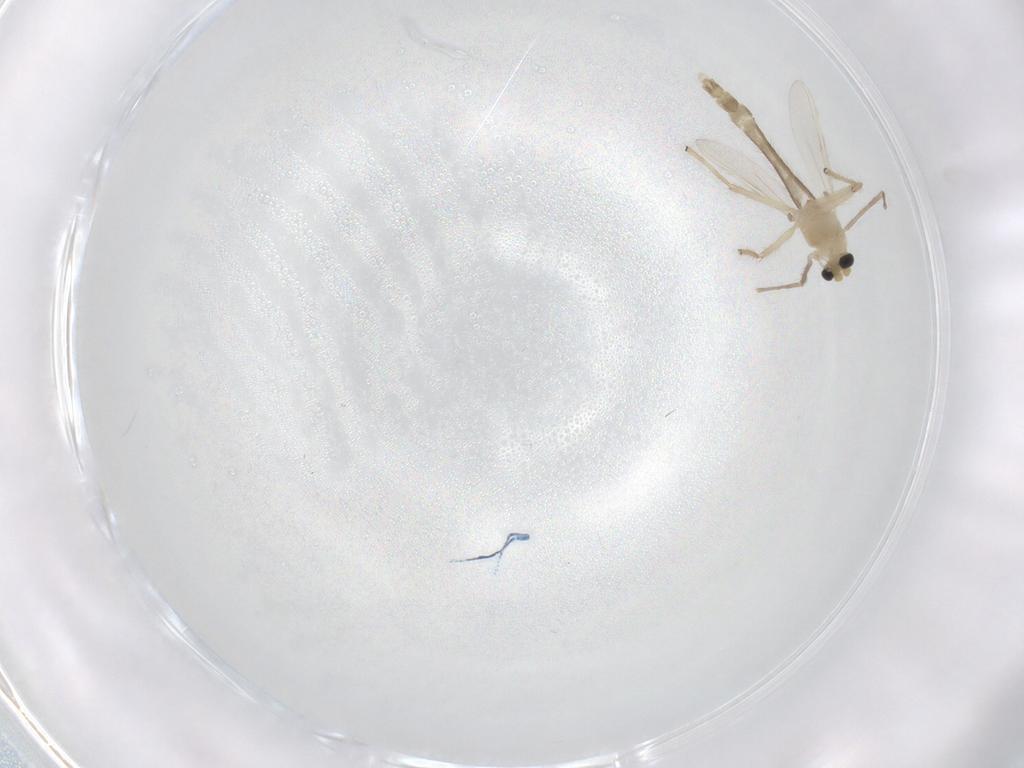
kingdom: Animalia
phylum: Arthropoda
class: Insecta
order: Diptera
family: Chironomidae
